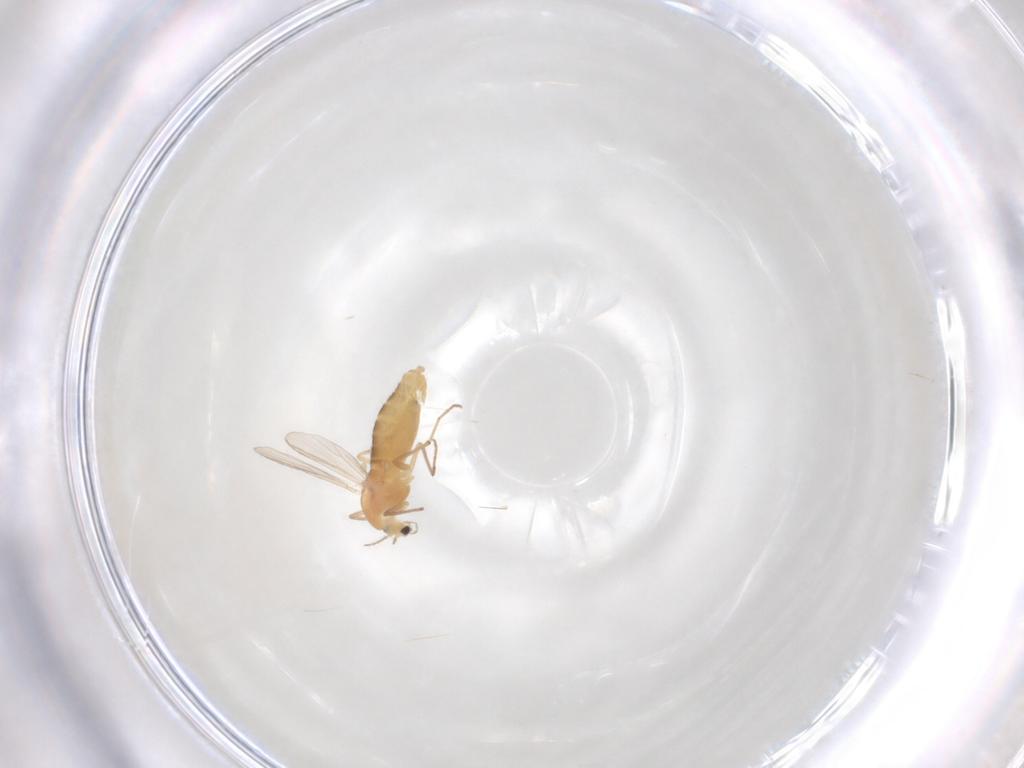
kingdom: Animalia
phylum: Arthropoda
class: Insecta
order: Diptera
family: Chironomidae
